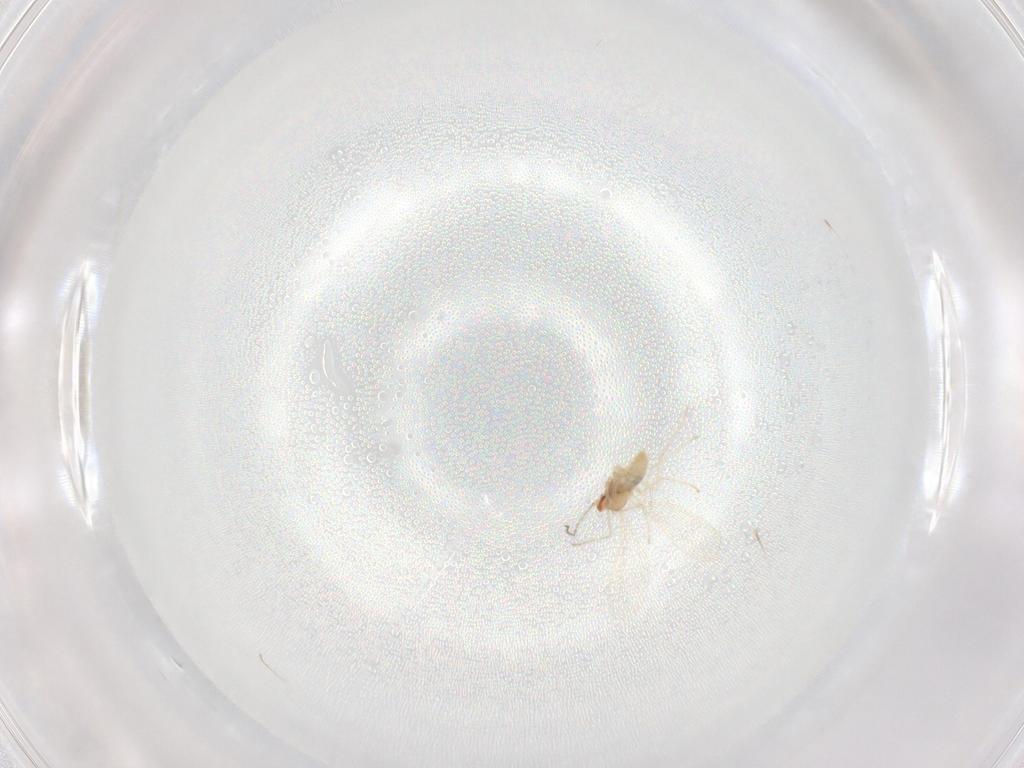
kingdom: Animalia
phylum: Arthropoda
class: Insecta
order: Diptera
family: Cecidomyiidae
